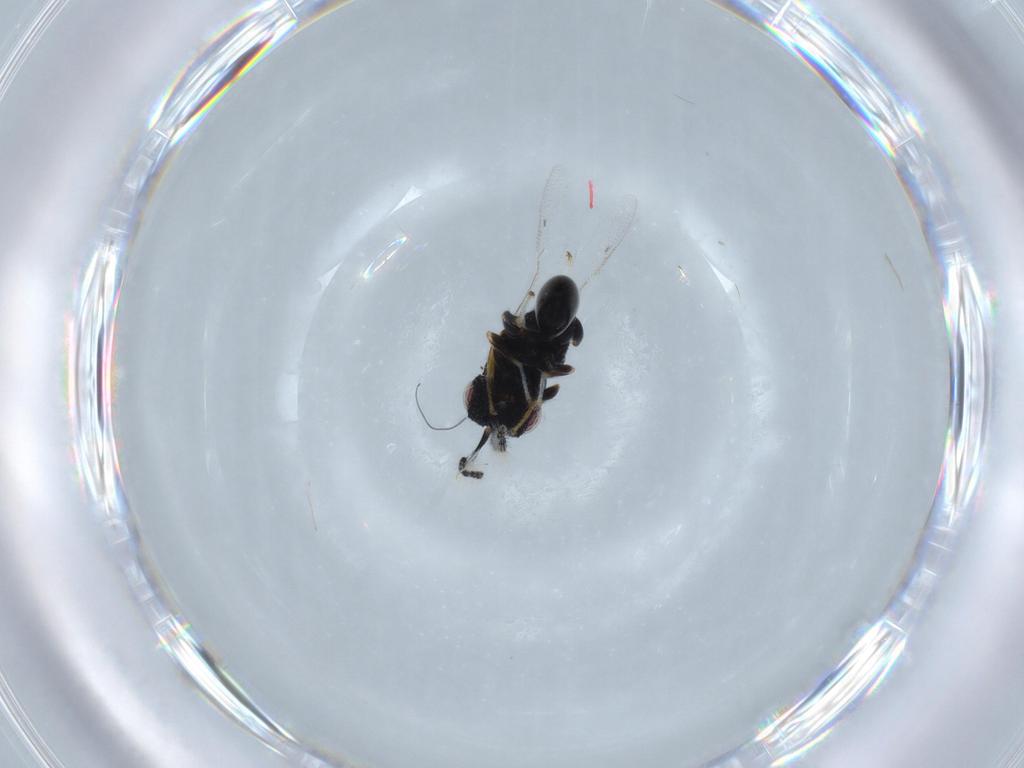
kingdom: Animalia
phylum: Arthropoda
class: Insecta
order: Hymenoptera
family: Eurytomidae
